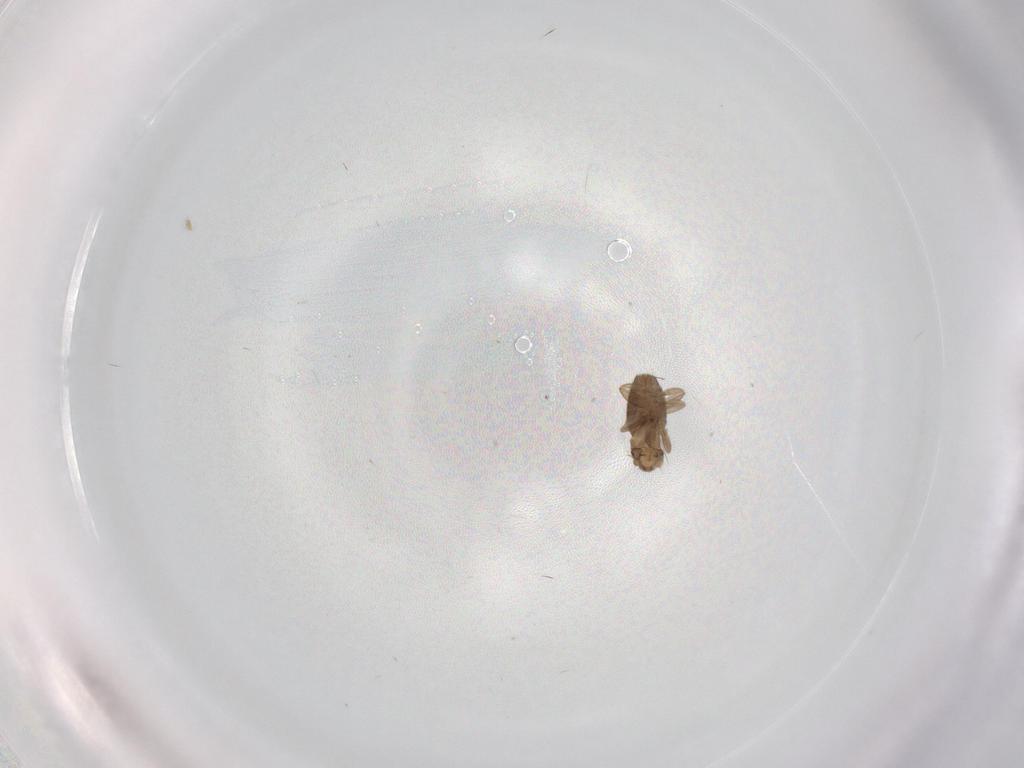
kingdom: Animalia
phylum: Arthropoda
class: Insecta
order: Diptera
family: Phoridae
